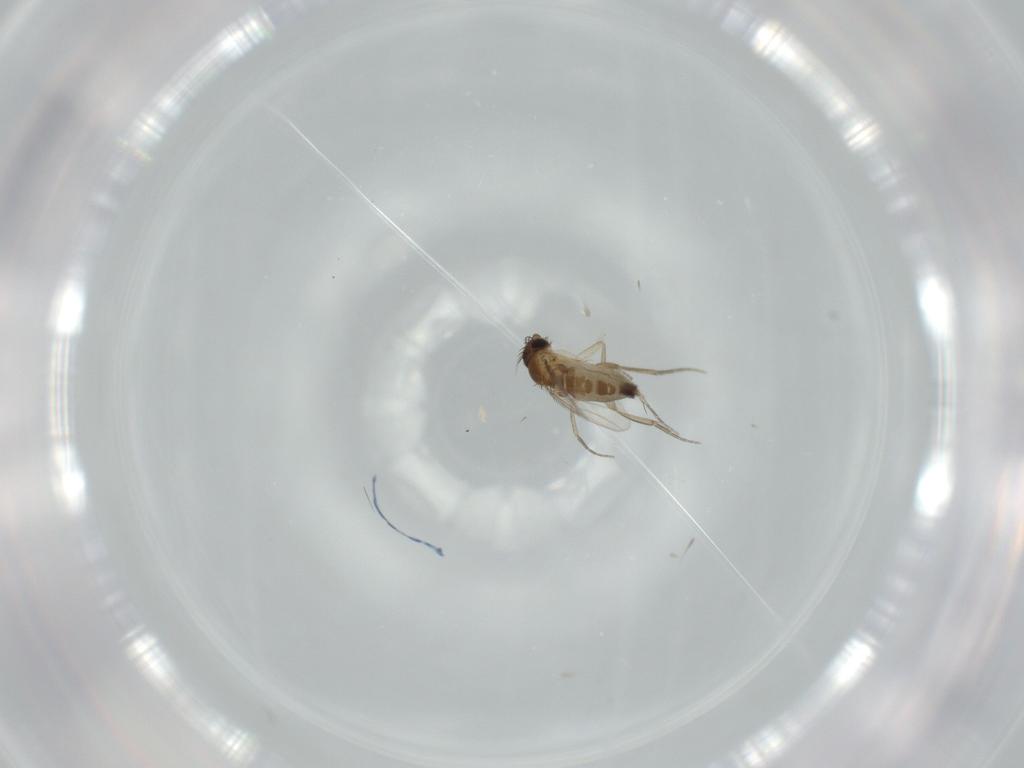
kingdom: Animalia
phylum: Arthropoda
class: Insecta
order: Diptera
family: Phoridae
